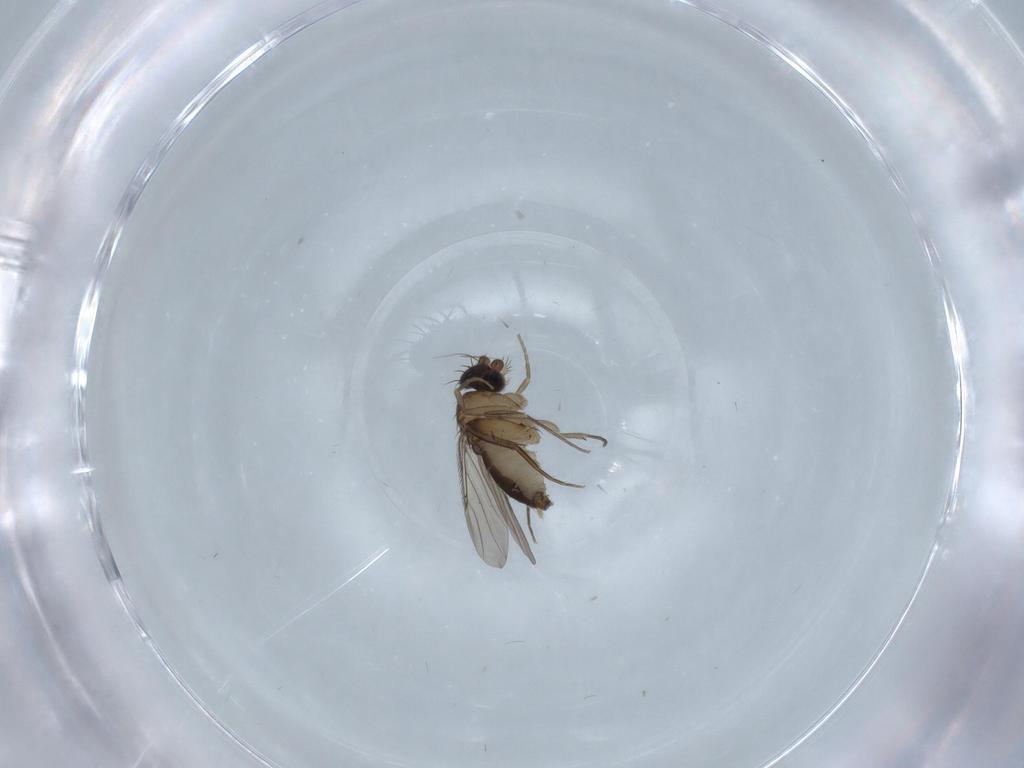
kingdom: Animalia
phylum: Arthropoda
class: Insecta
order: Diptera
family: Phoridae
